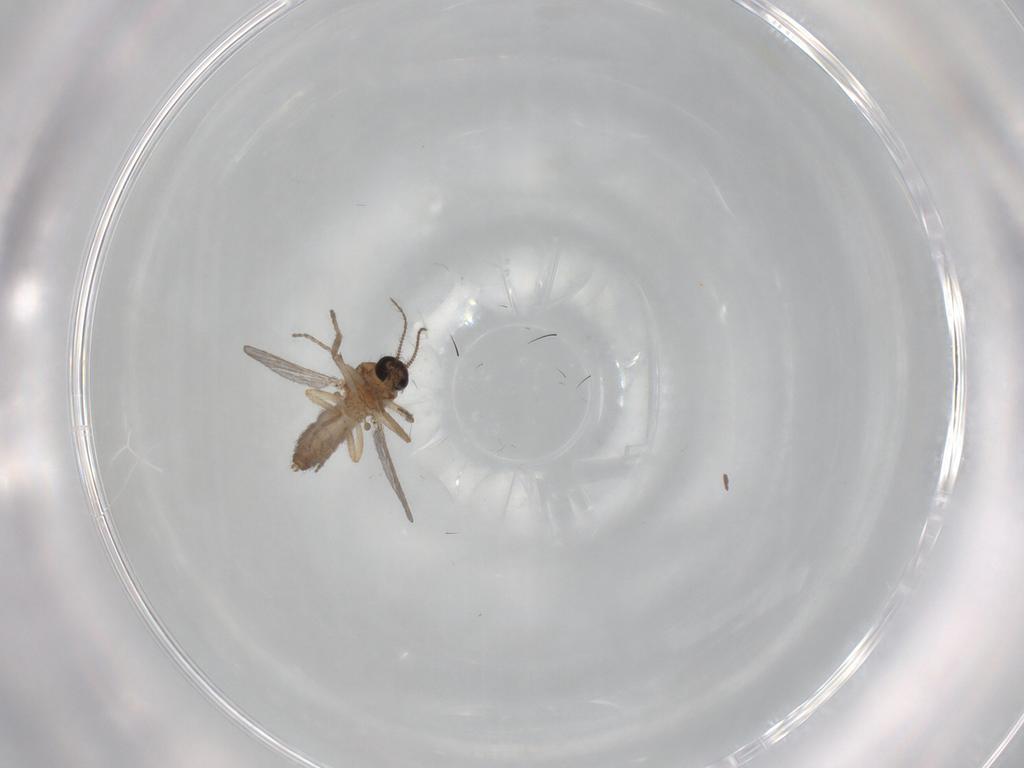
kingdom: Animalia
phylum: Arthropoda
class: Insecta
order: Diptera
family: Ceratopogonidae
